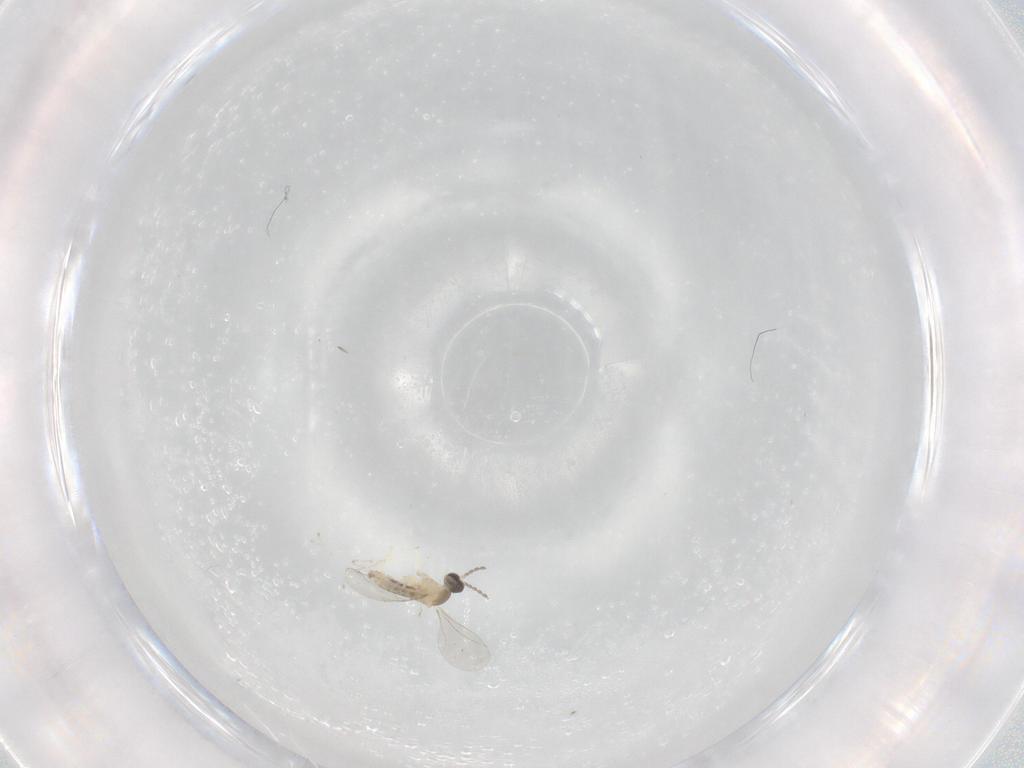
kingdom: Animalia
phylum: Arthropoda
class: Insecta
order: Diptera
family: Cecidomyiidae
